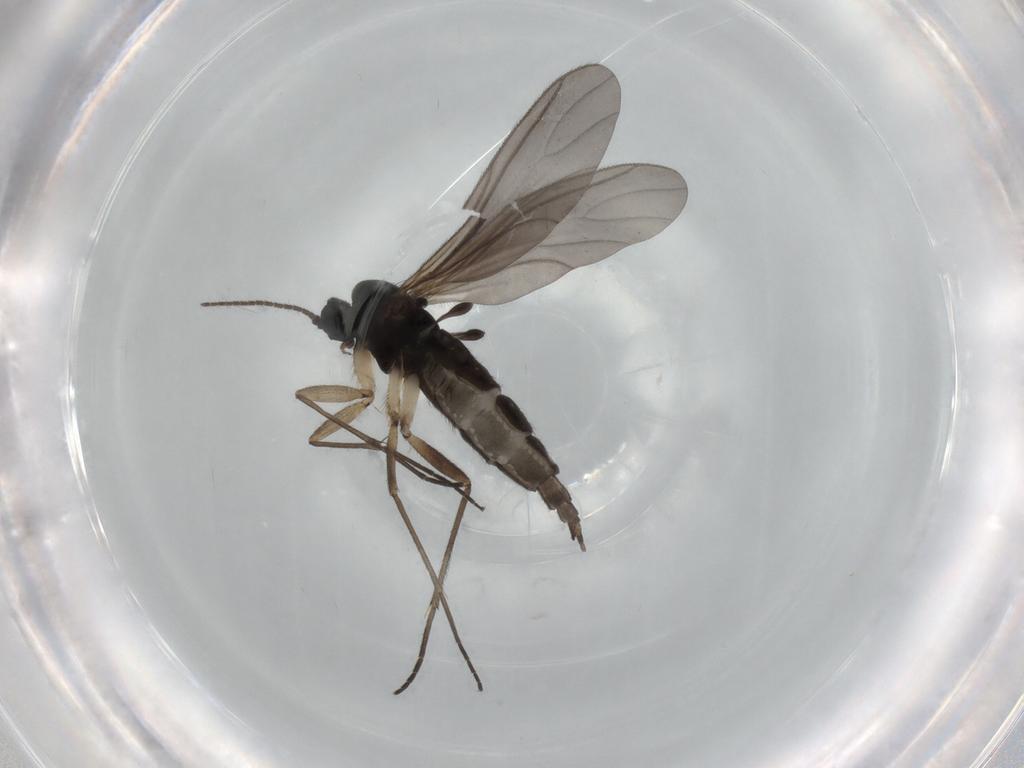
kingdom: Animalia
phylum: Arthropoda
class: Insecta
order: Diptera
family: Sciaridae
